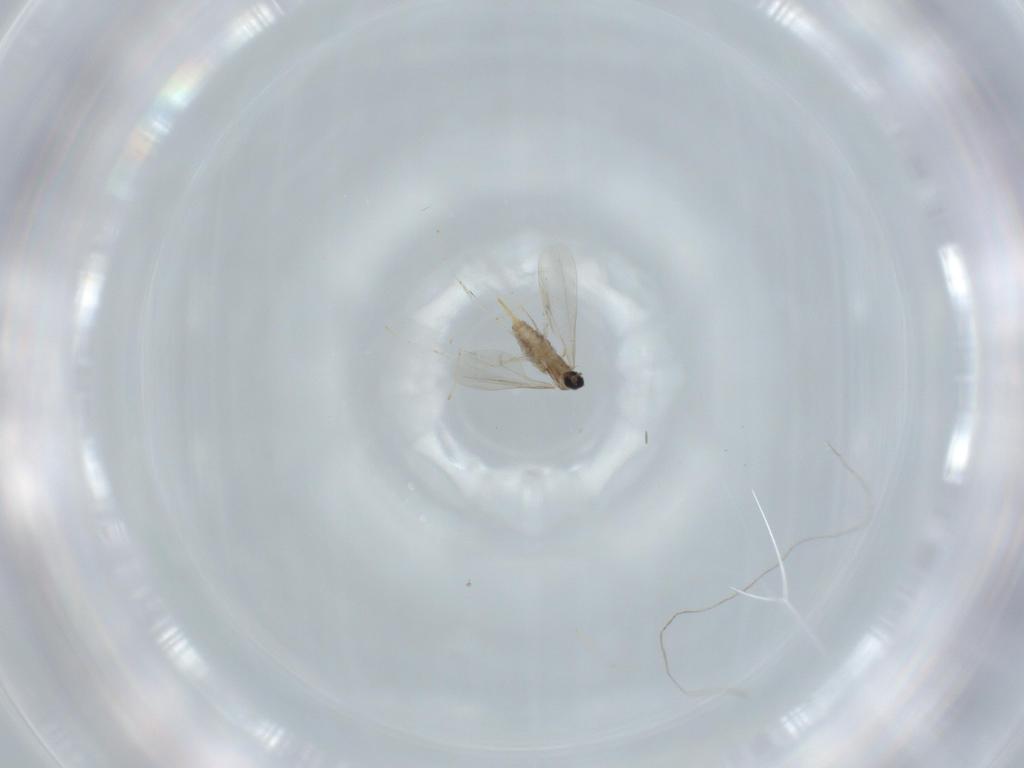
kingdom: Animalia
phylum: Arthropoda
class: Insecta
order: Diptera
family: Cecidomyiidae
